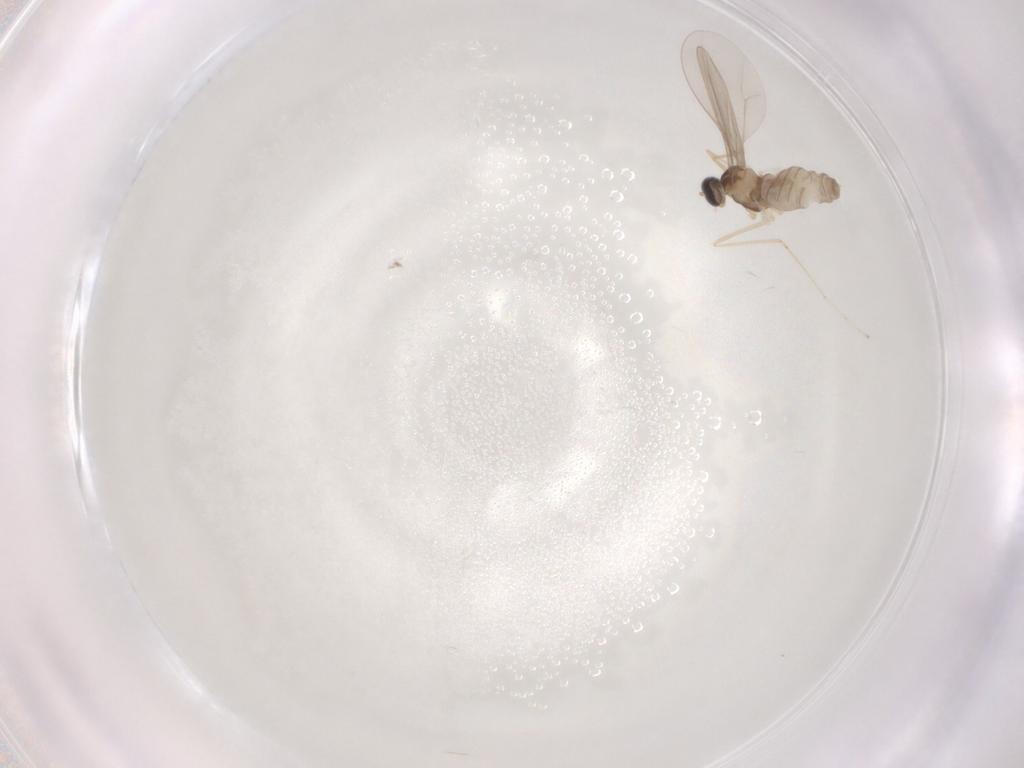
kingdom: Animalia
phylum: Arthropoda
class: Insecta
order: Diptera
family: Cecidomyiidae
